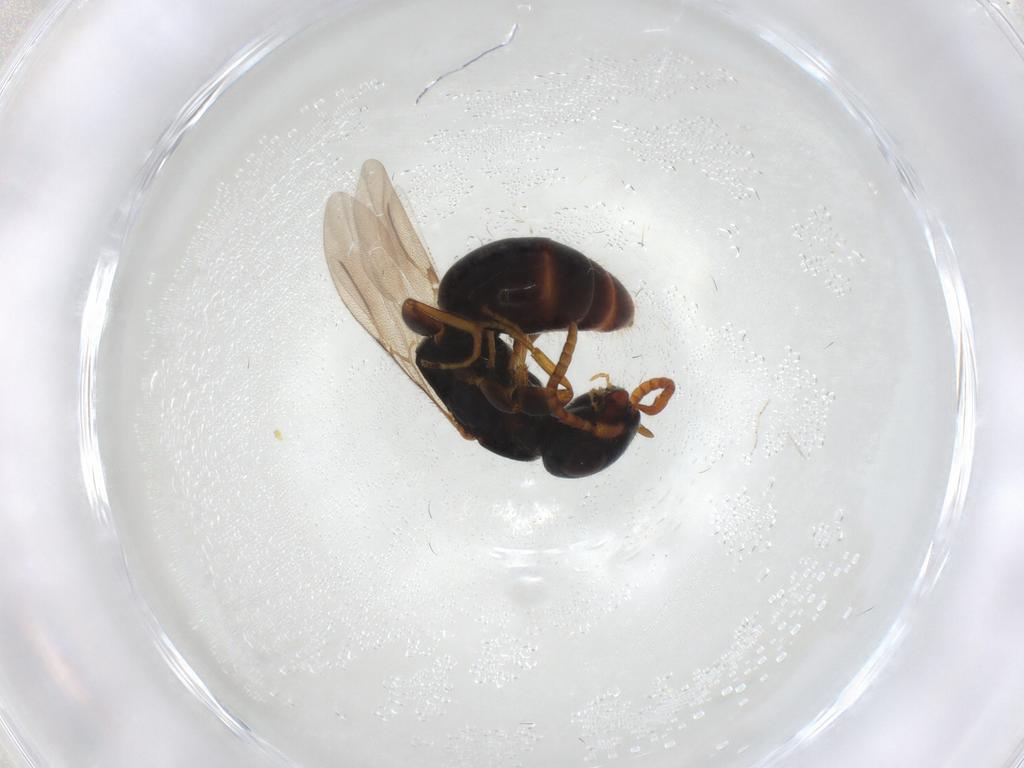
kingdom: Animalia
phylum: Arthropoda
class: Insecta
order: Hymenoptera
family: Bethylidae
